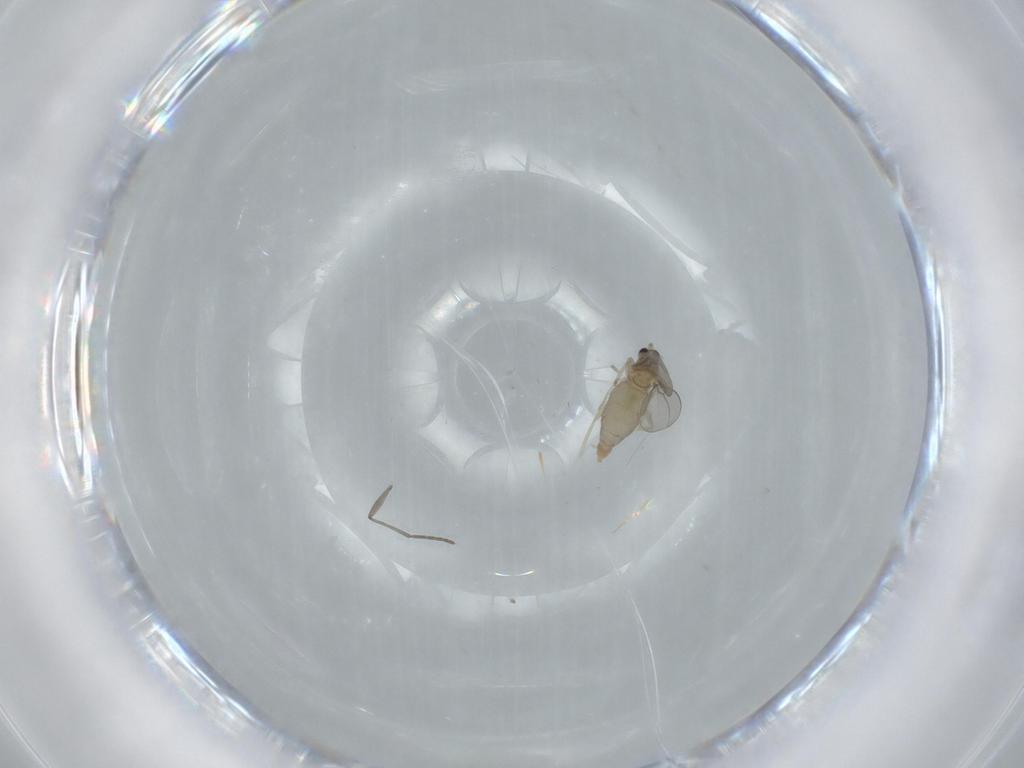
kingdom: Animalia
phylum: Arthropoda
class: Insecta
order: Diptera
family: Cecidomyiidae
